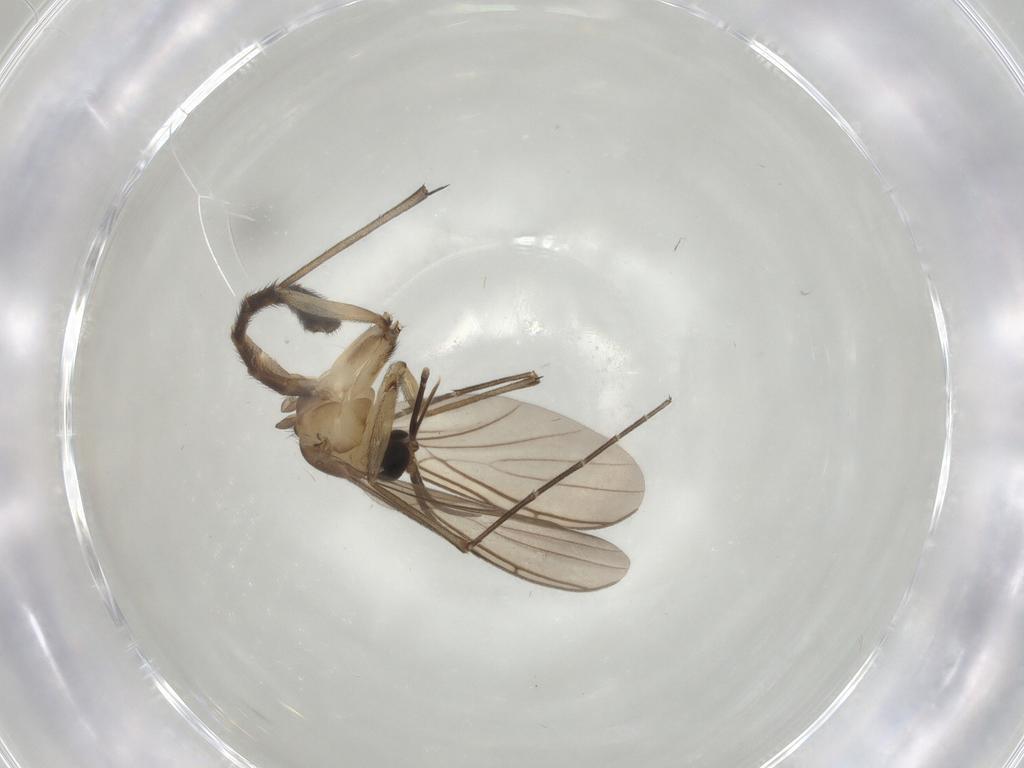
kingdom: Animalia
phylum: Arthropoda
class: Insecta
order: Diptera
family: Keroplatidae
